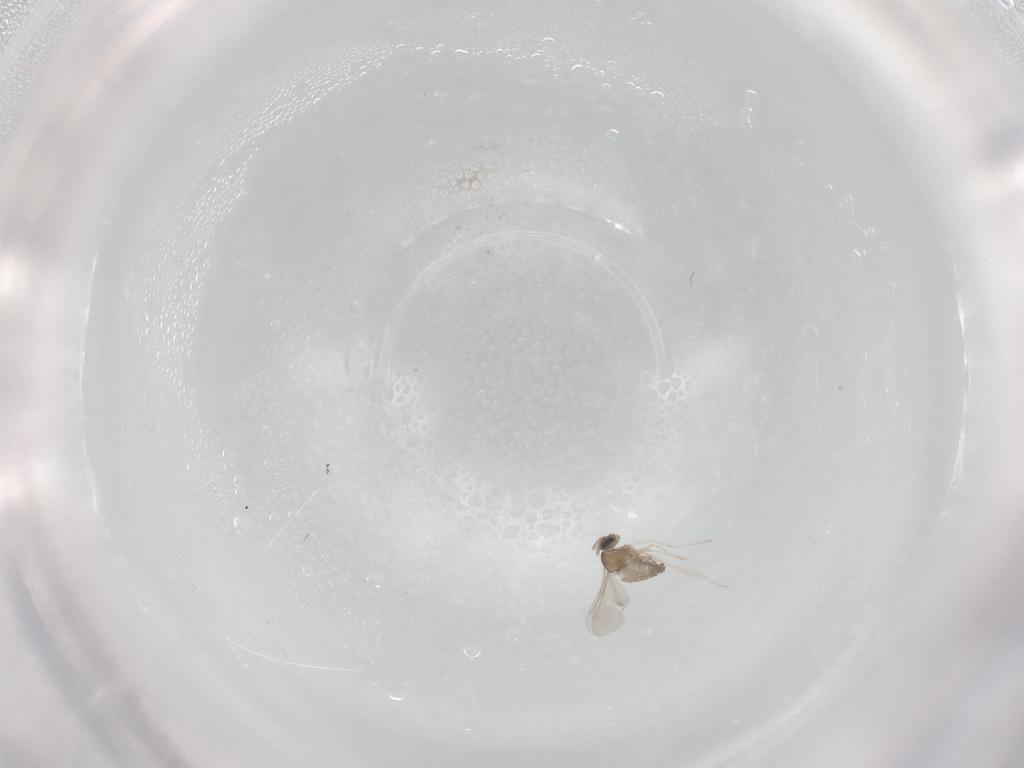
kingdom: Animalia
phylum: Arthropoda
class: Insecta
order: Diptera
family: Cecidomyiidae
